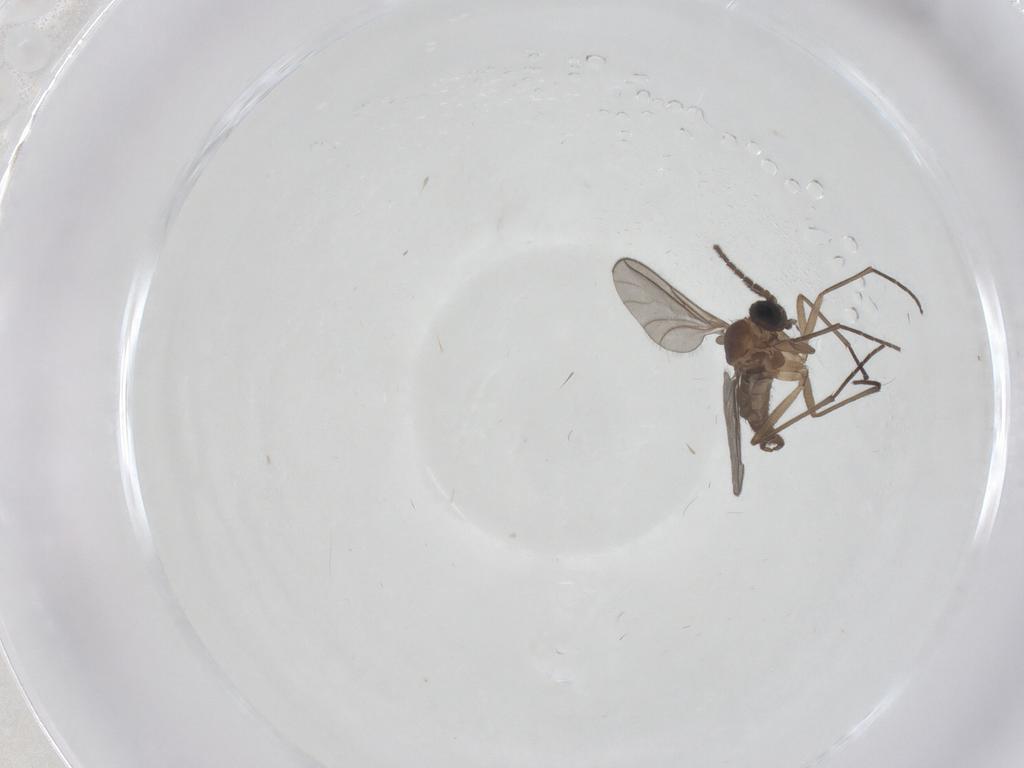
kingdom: Animalia
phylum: Arthropoda
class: Insecta
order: Diptera
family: Sciaridae
